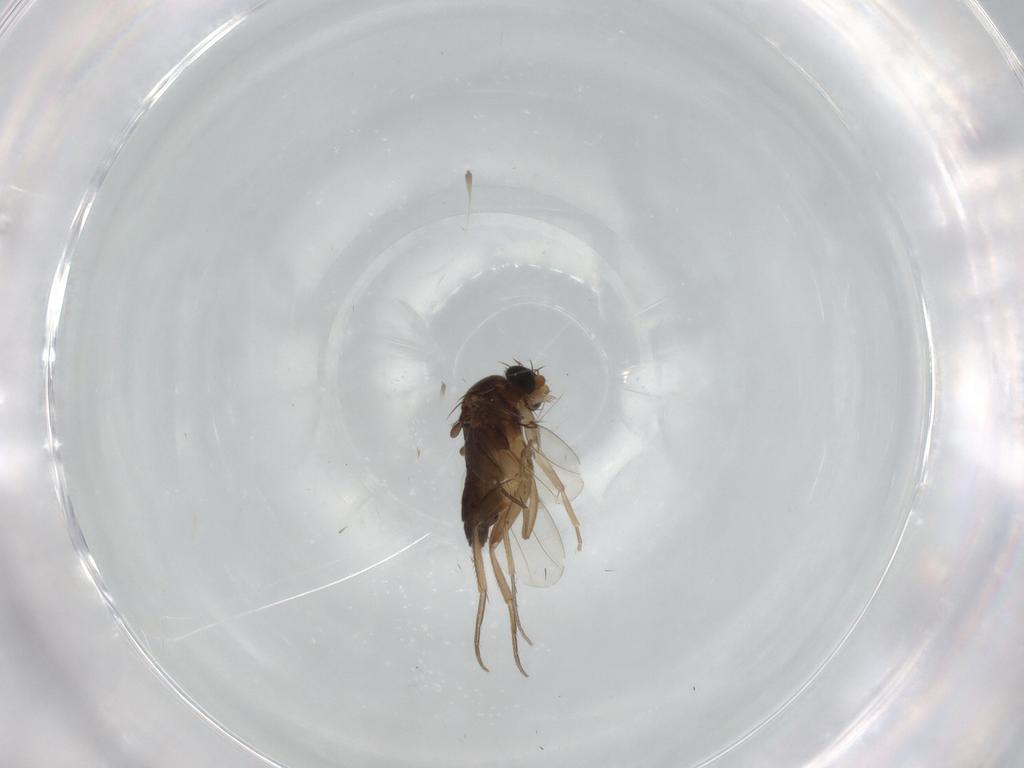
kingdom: Animalia
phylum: Arthropoda
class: Insecta
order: Diptera
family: Phoridae
